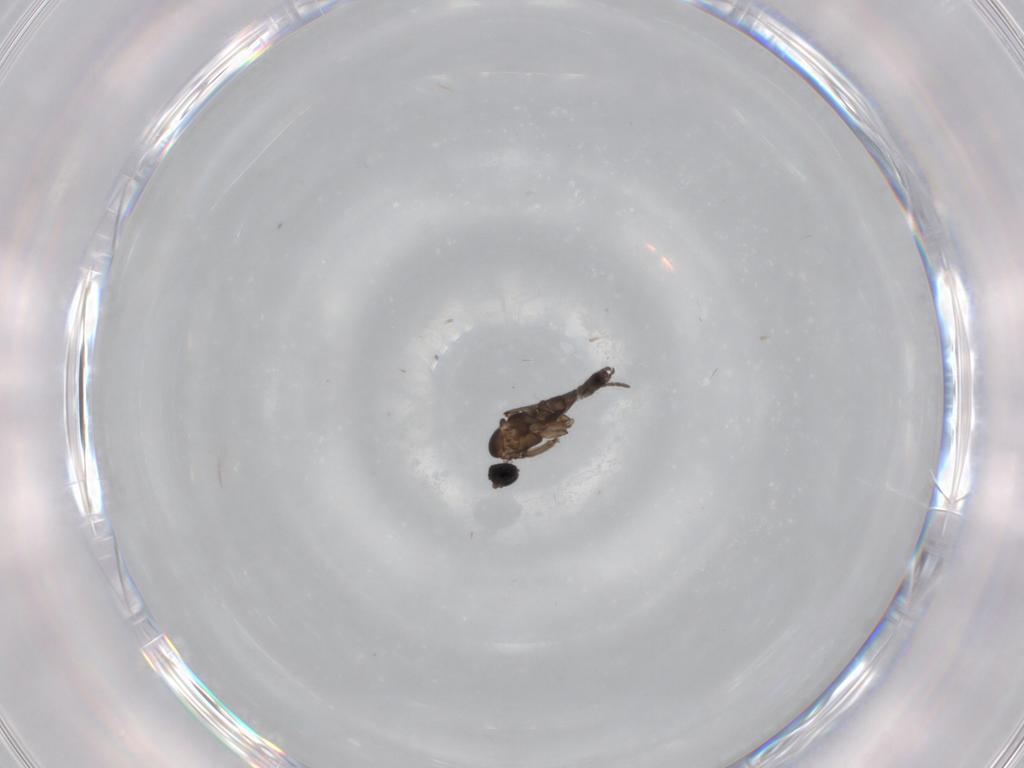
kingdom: Animalia
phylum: Arthropoda
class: Insecta
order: Diptera
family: Sciaridae
